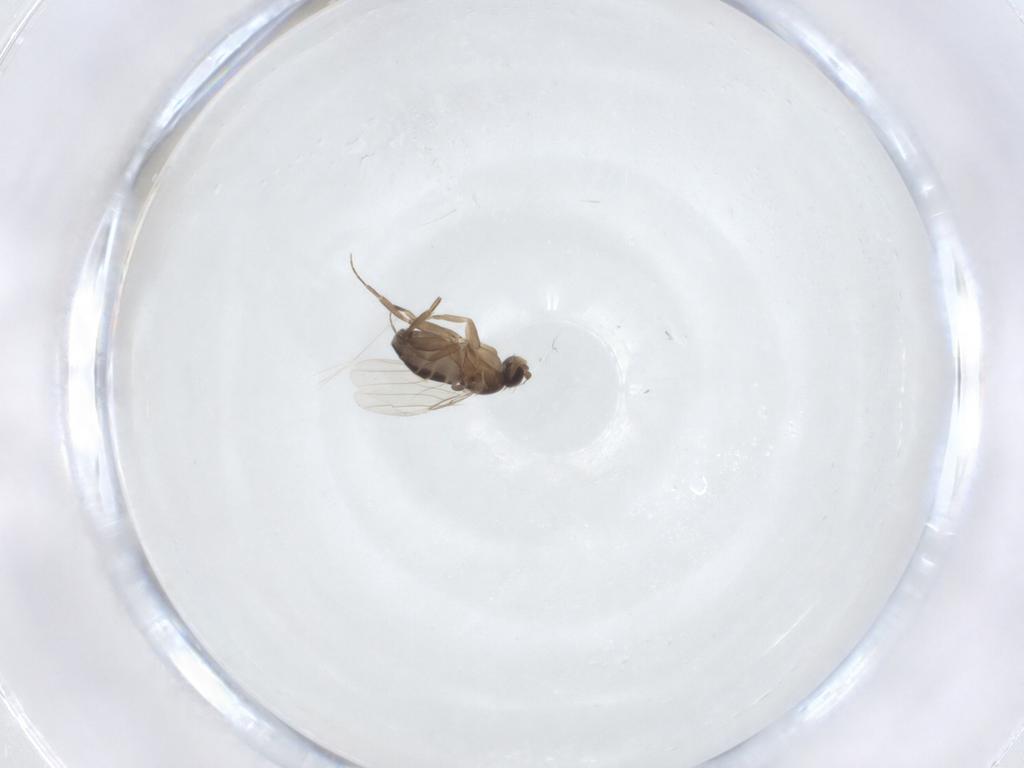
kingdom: Animalia
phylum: Arthropoda
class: Insecta
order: Diptera
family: Phoridae
